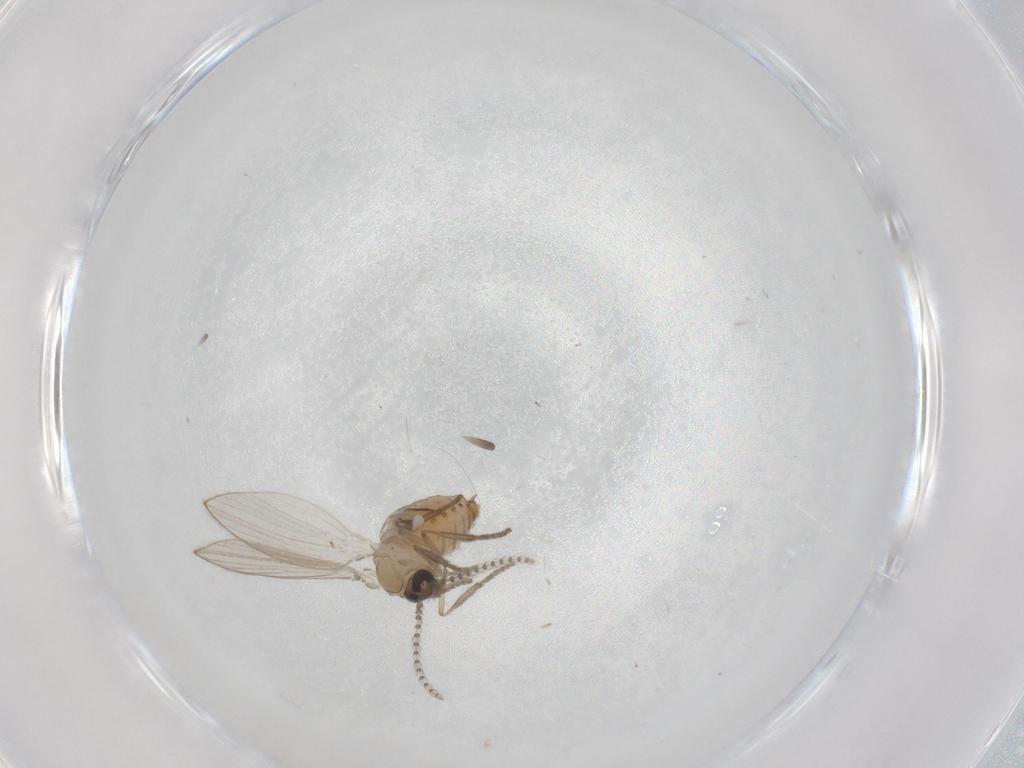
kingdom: Animalia
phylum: Arthropoda
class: Insecta
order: Diptera
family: Psychodidae
